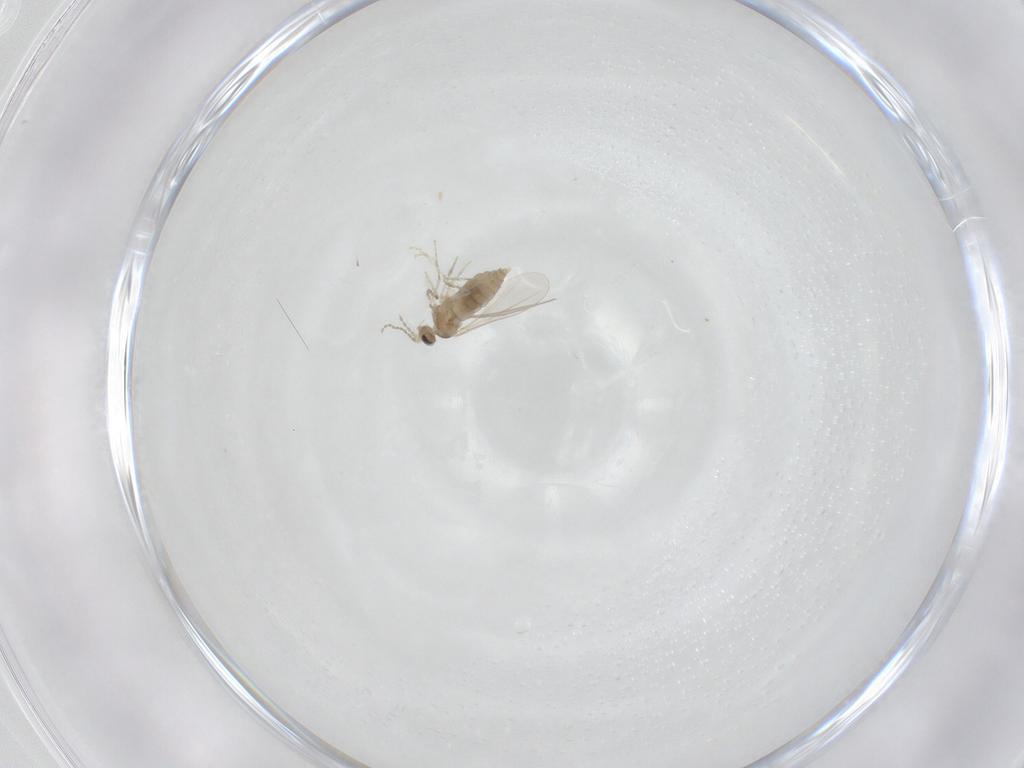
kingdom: Animalia
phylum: Arthropoda
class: Insecta
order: Diptera
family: Cecidomyiidae
